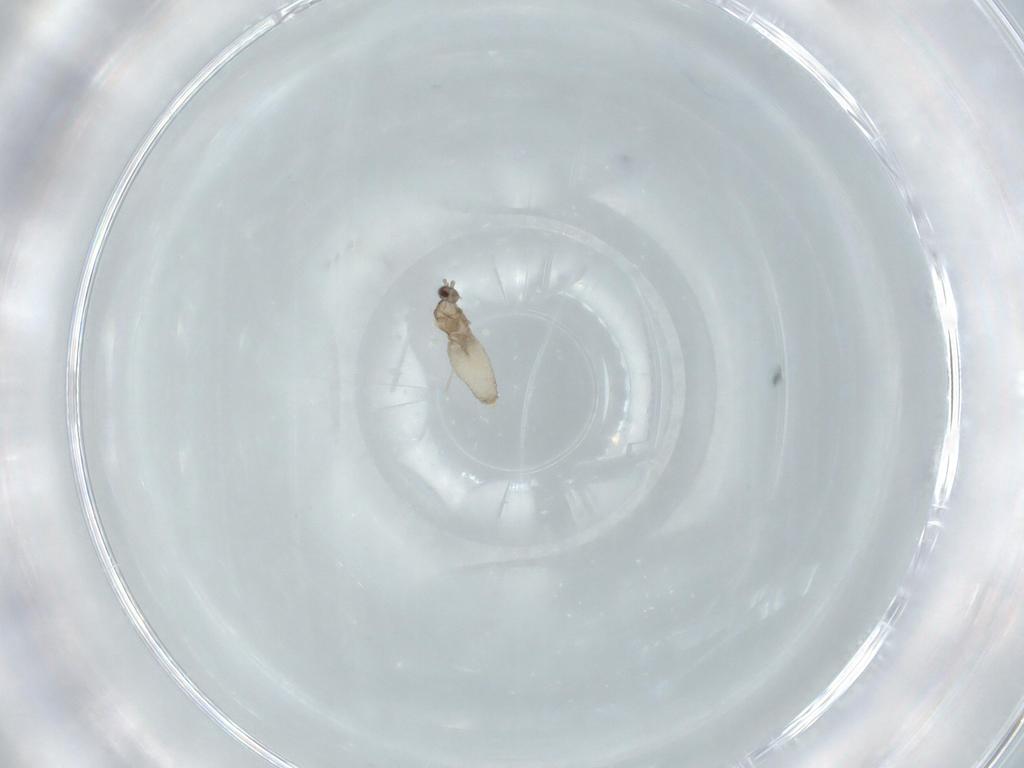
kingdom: Animalia
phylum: Arthropoda
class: Insecta
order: Diptera
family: Cecidomyiidae
